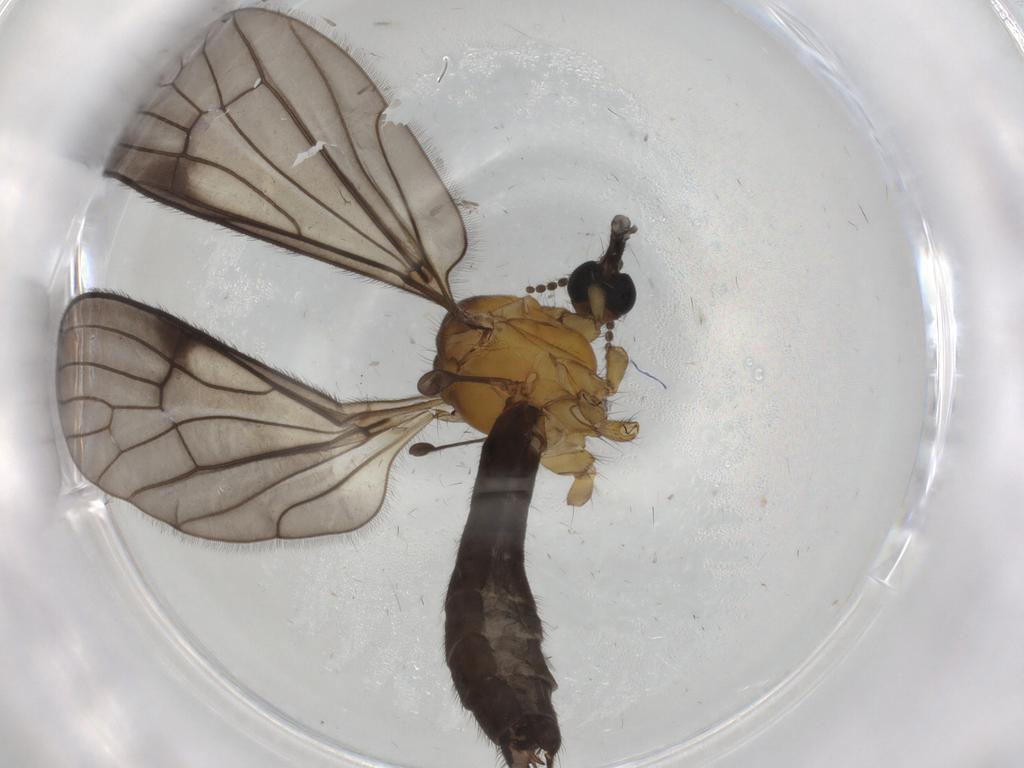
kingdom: Animalia
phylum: Arthropoda
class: Insecta
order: Diptera
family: Limoniidae
